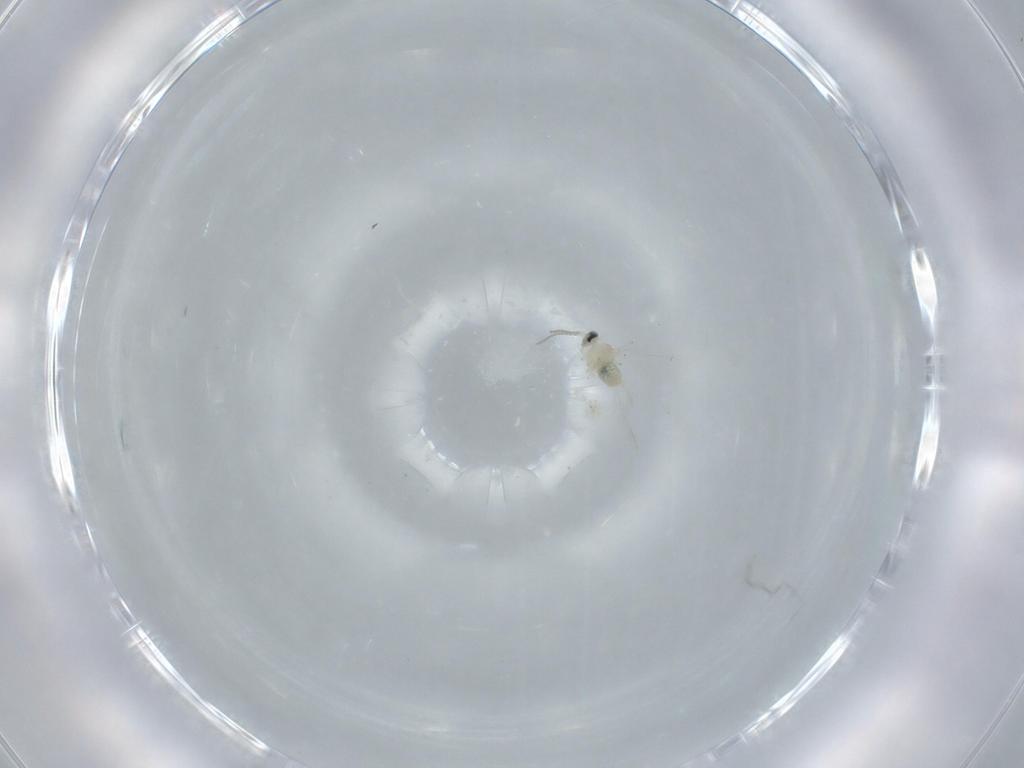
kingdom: Animalia
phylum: Arthropoda
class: Insecta
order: Diptera
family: Cecidomyiidae
